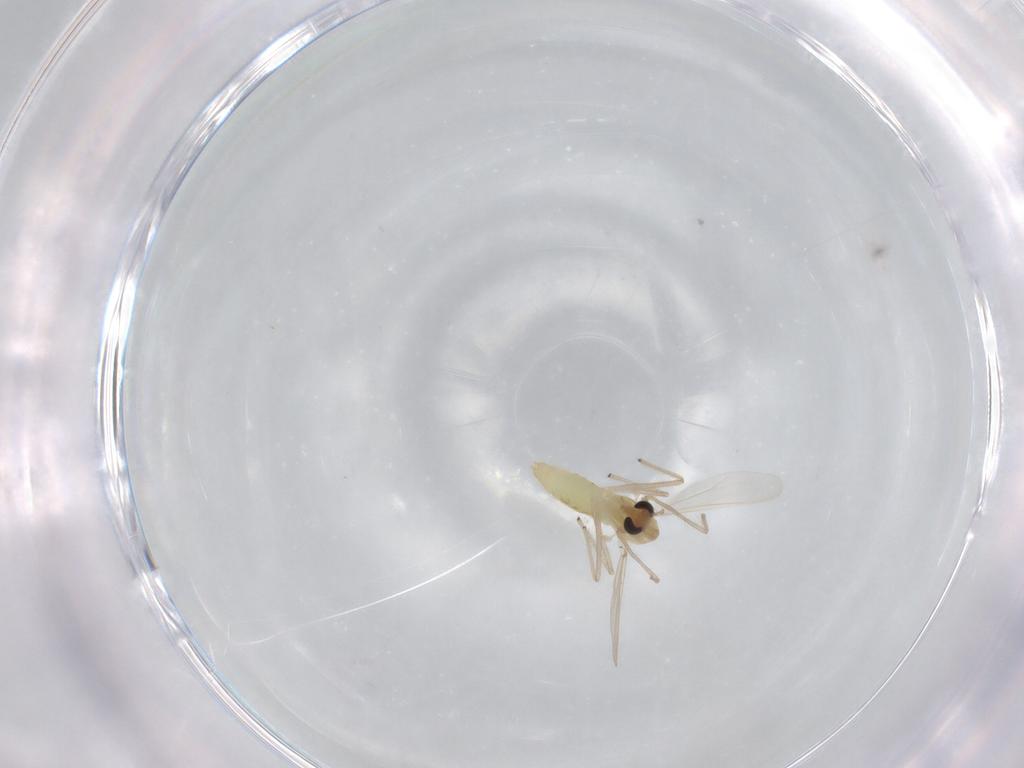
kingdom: Animalia
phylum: Arthropoda
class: Insecta
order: Diptera
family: Chironomidae
